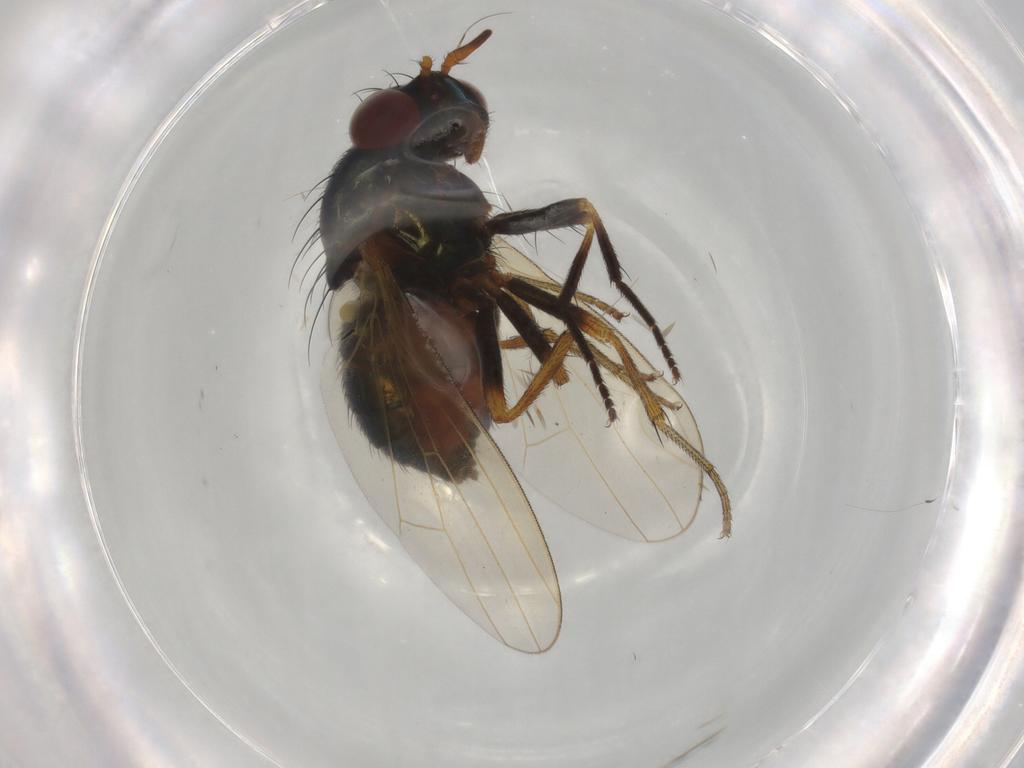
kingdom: Animalia
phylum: Arthropoda
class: Insecta
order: Diptera
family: Lauxaniidae
